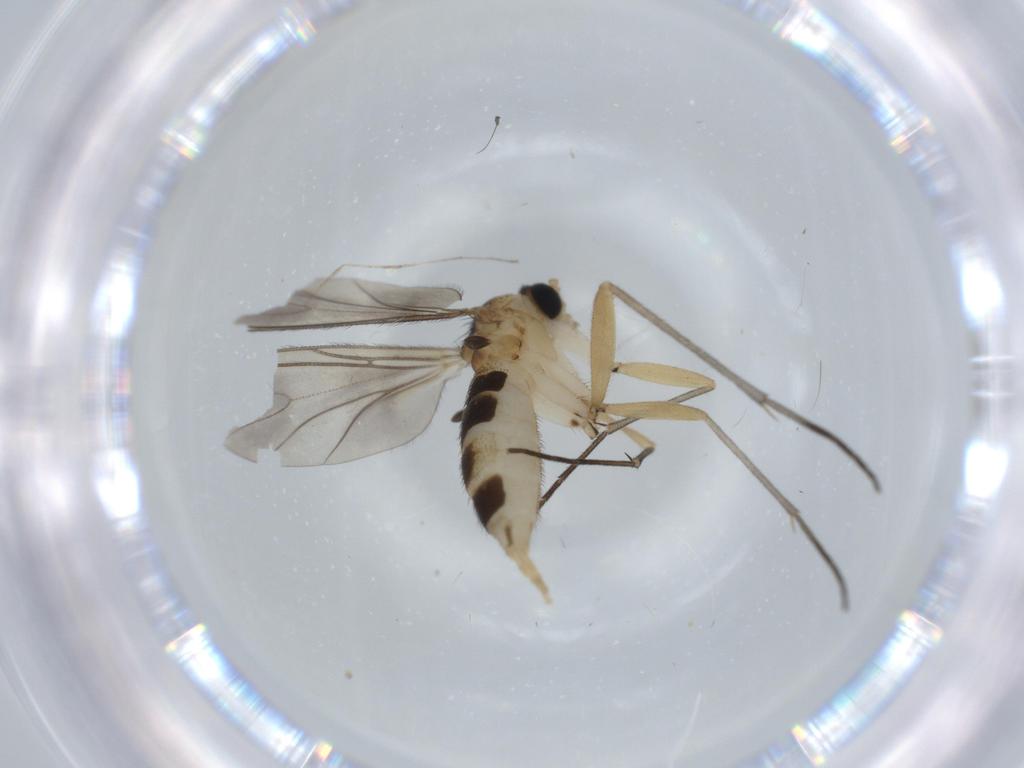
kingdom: Animalia
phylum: Arthropoda
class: Insecta
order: Diptera
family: Sciaridae
